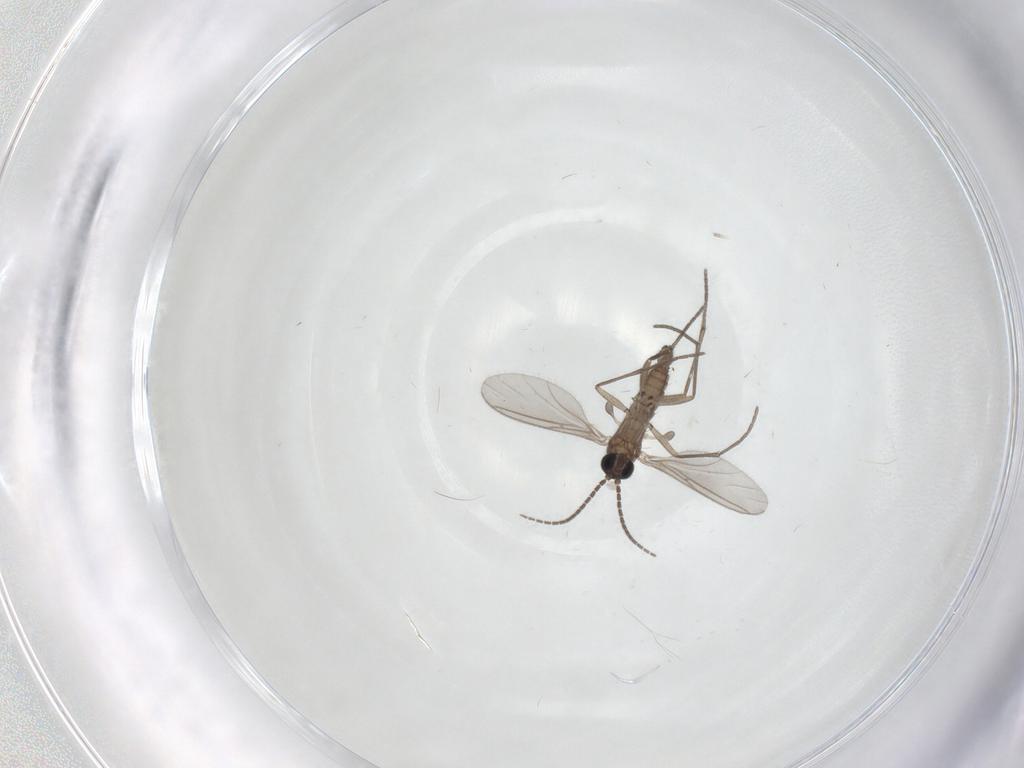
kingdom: Animalia
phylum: Arthropoda
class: Insecta
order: Diptera
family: Sciaridae
